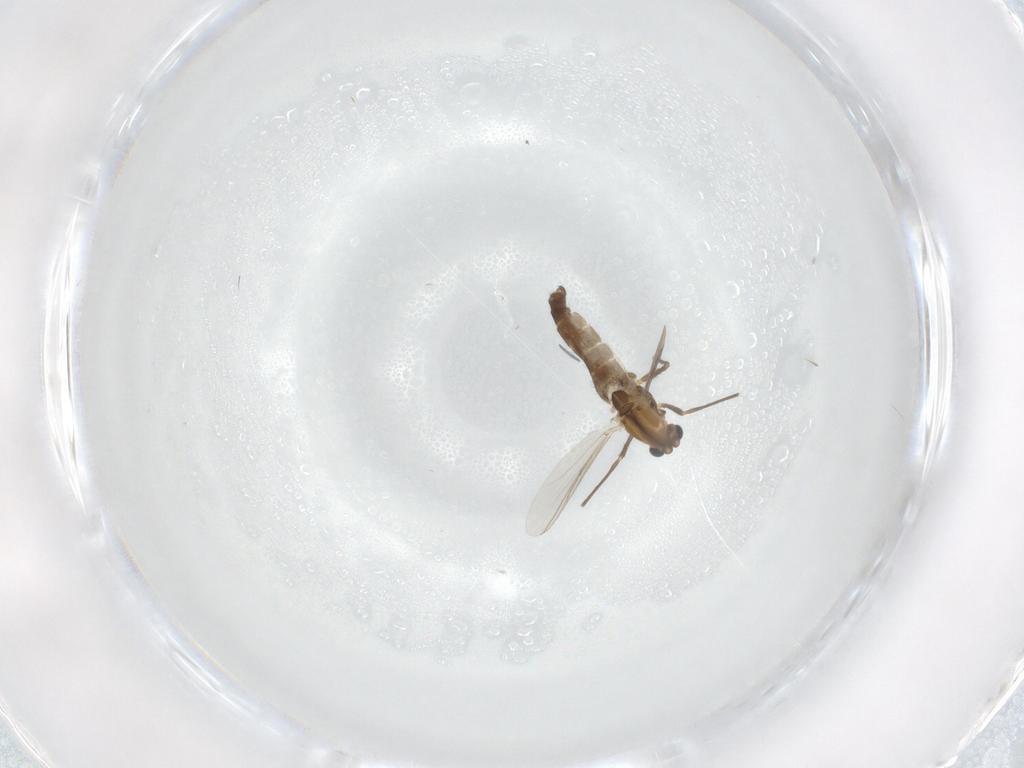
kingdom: Animalia
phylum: Arthropoda
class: Insecta
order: Diptera
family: Chironomidae
